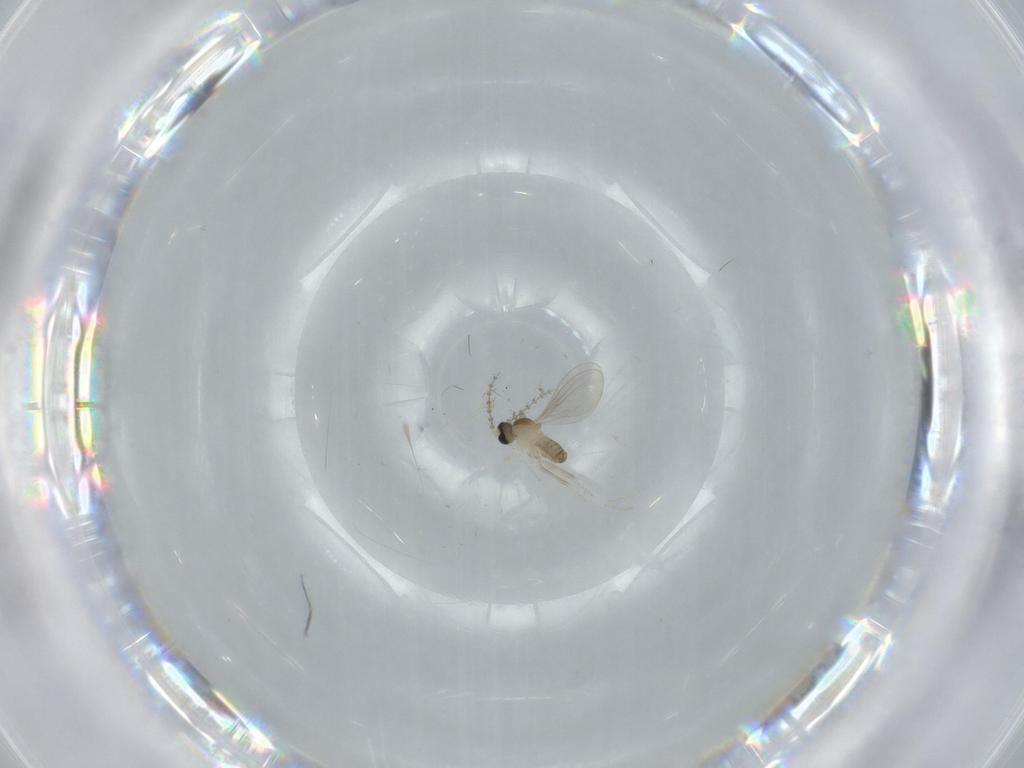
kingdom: Animalia
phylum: Arthropoda
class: Insecta
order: Diptera
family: Cecidomyiidae
